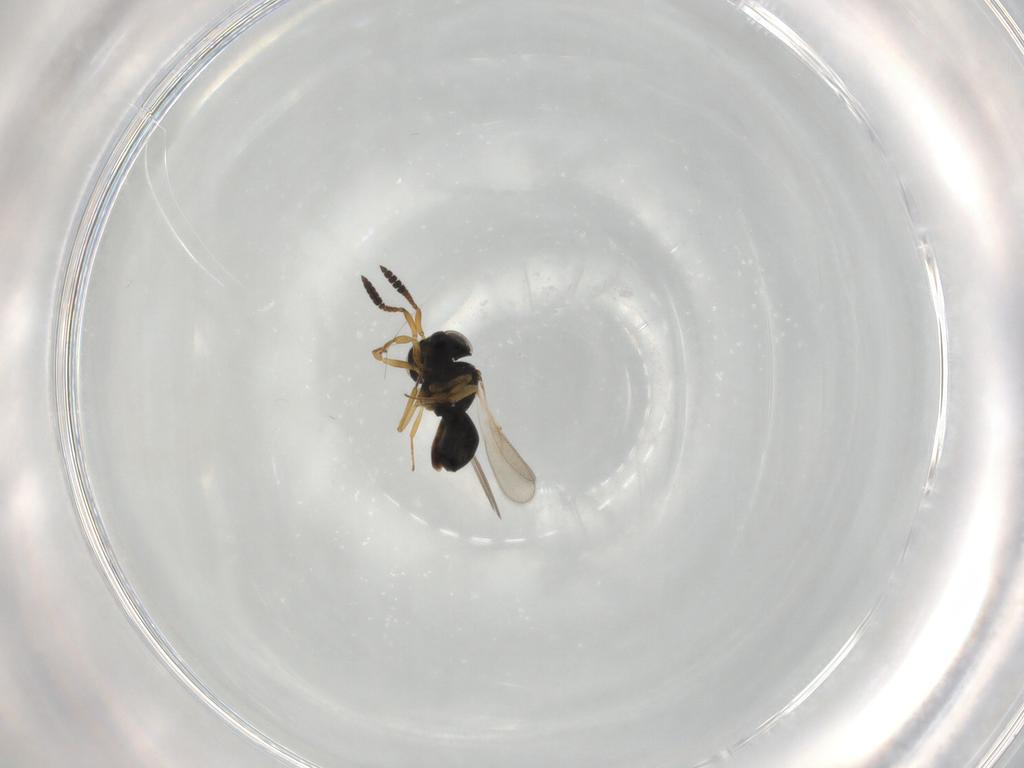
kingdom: Animalia
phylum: Arthropoda
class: Insecta
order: Hymenoptera
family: Scelionidae
